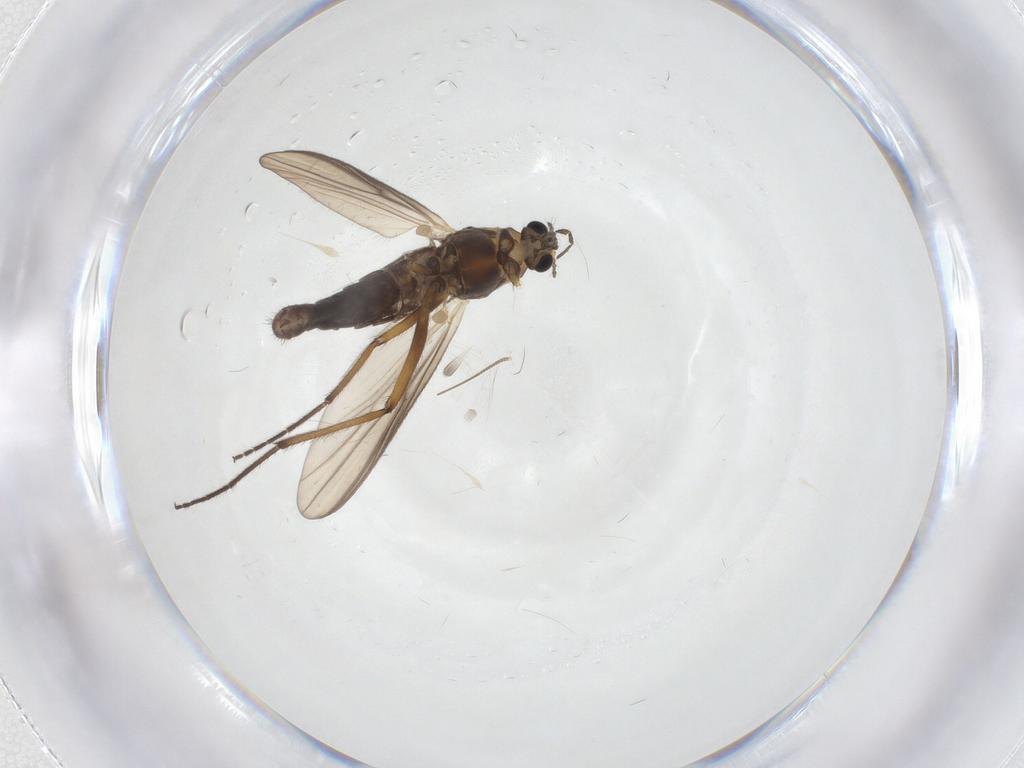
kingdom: Animalia
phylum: Arthropoda
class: Insecta
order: Diptera
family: Chironomidae
